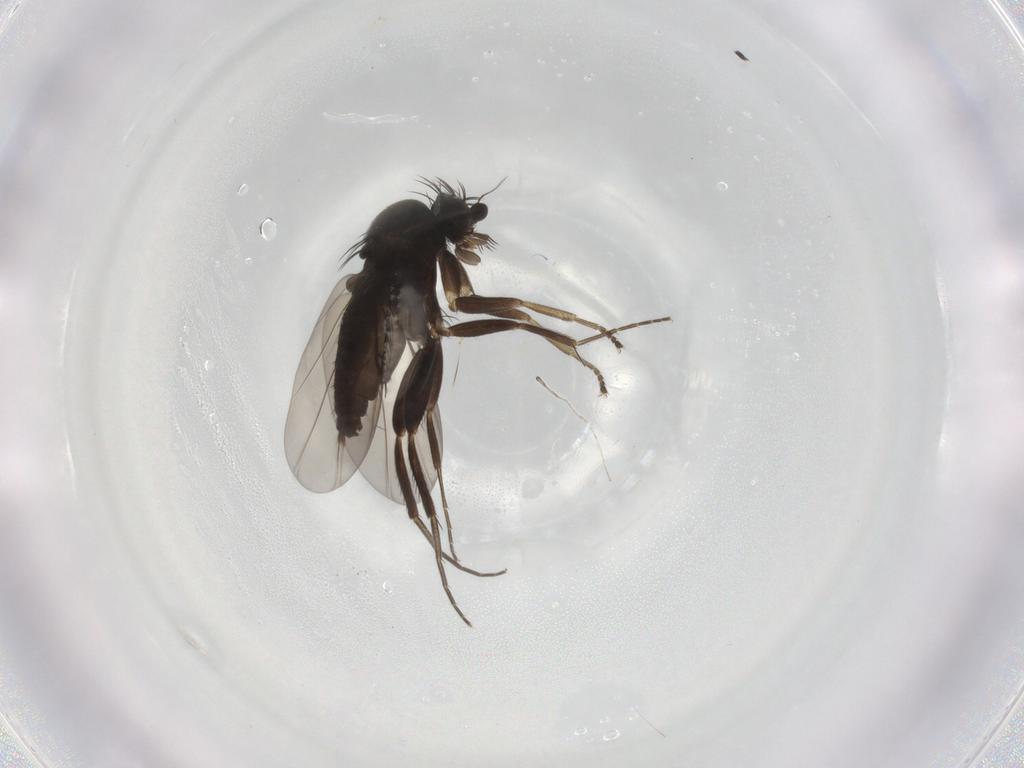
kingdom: Animalia
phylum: Arthropoda
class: Insecta
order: Diptera
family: Phoridae
